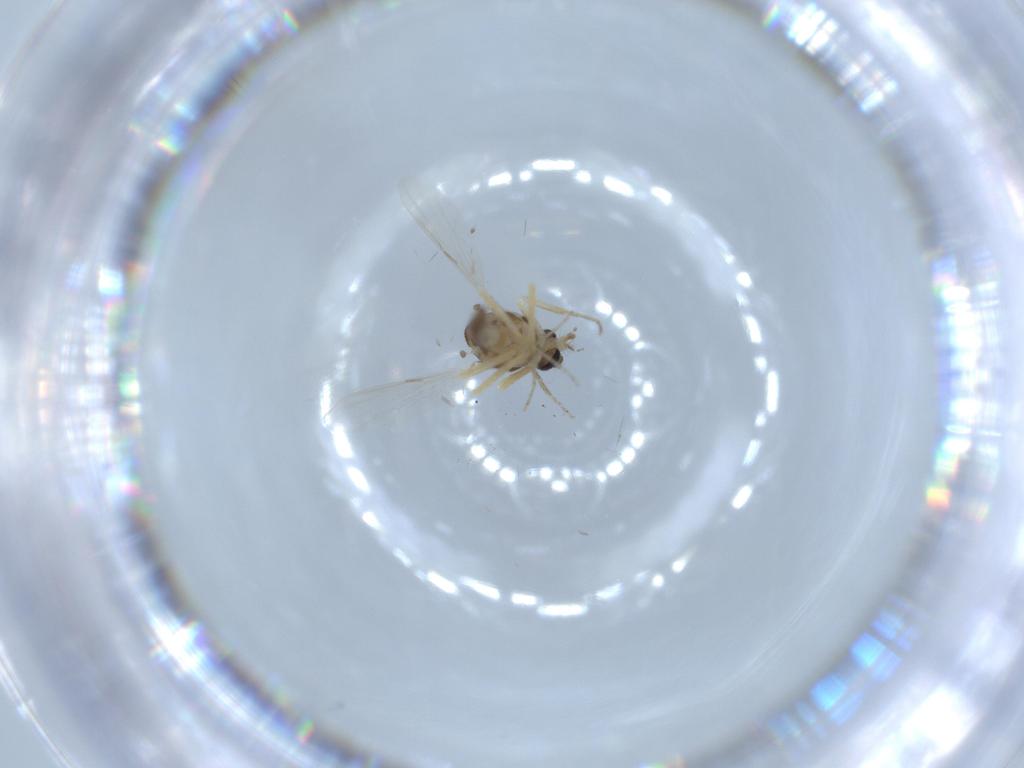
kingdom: Animalia
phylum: Arthropoda
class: Insecta
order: Diptera
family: Sciaridae
